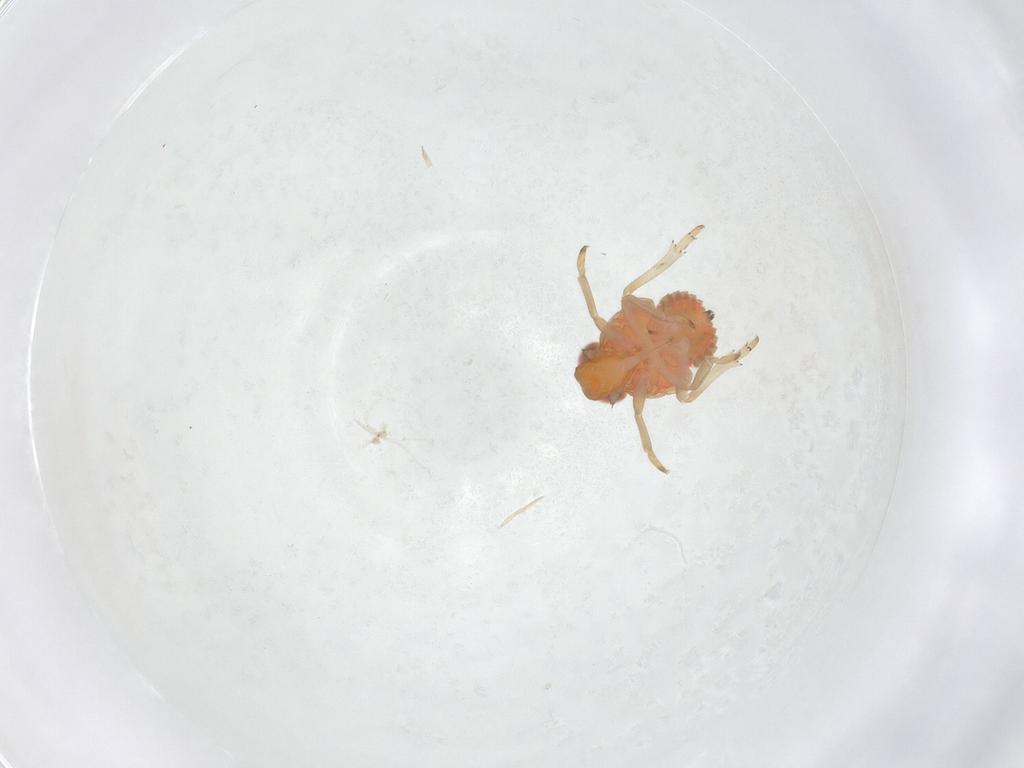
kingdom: Animalia
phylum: Arthropoda
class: Insecta
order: Hemiptera
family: Fulgoroidea_incertae_sedis
